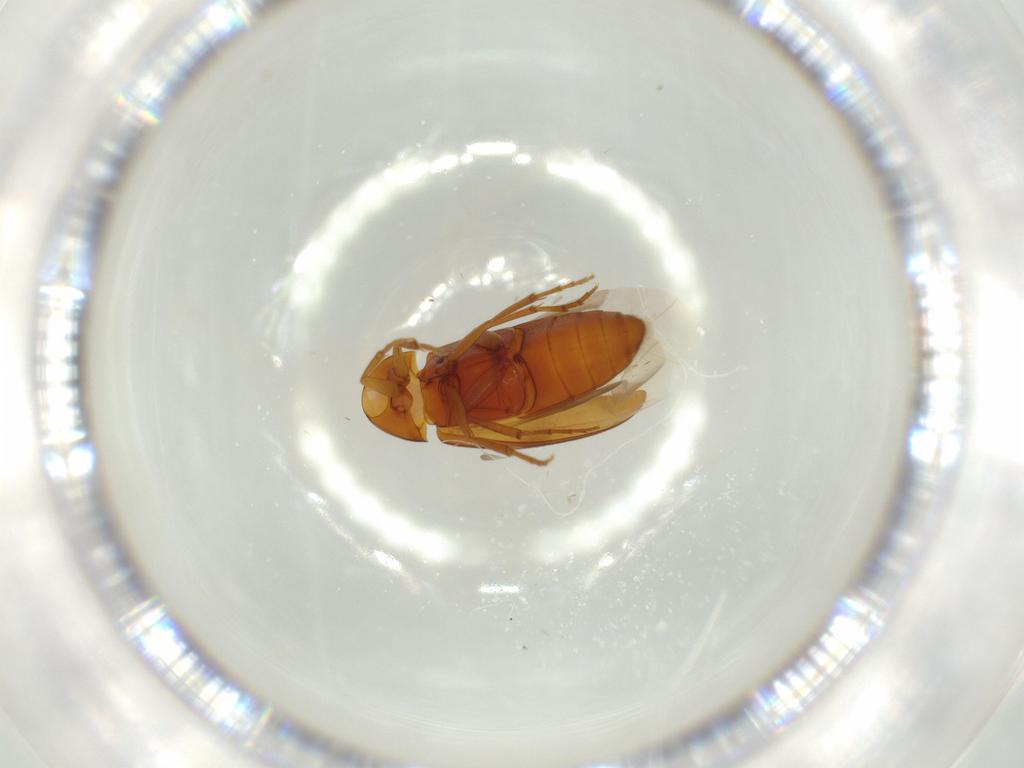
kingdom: Animalia
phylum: Arthropoda
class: Insecta
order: Coleoptera
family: Scraptiidae
